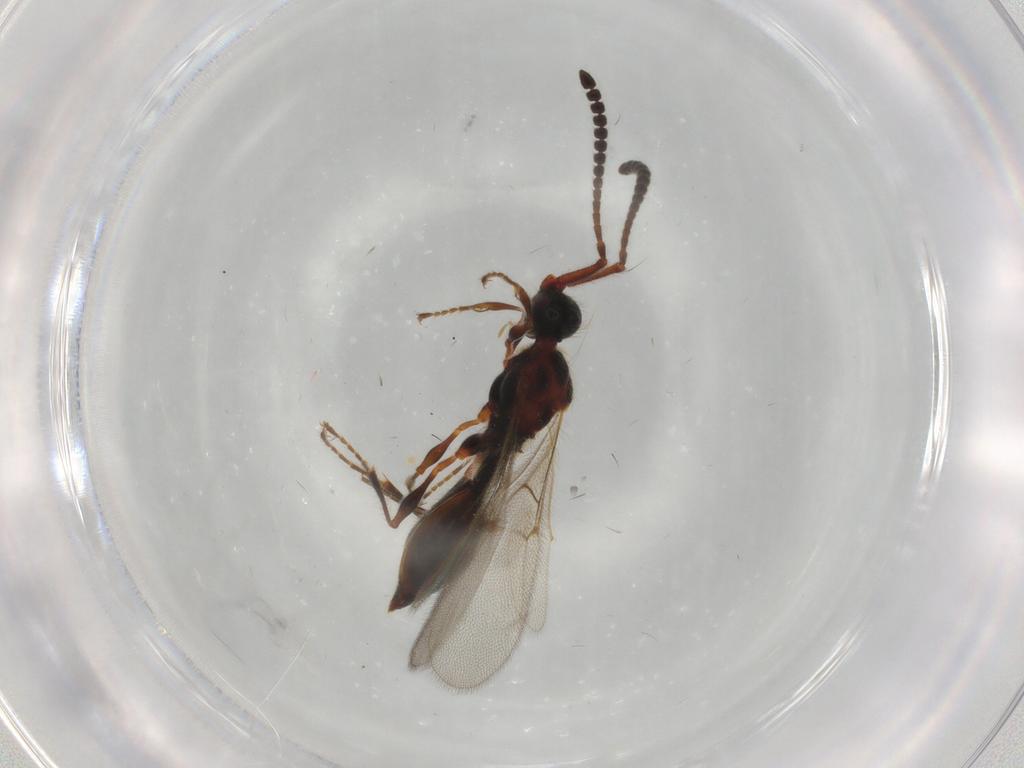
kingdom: Animalia
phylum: Arthropoda
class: Insecta
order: Hymenoptera
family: Diapriidae
